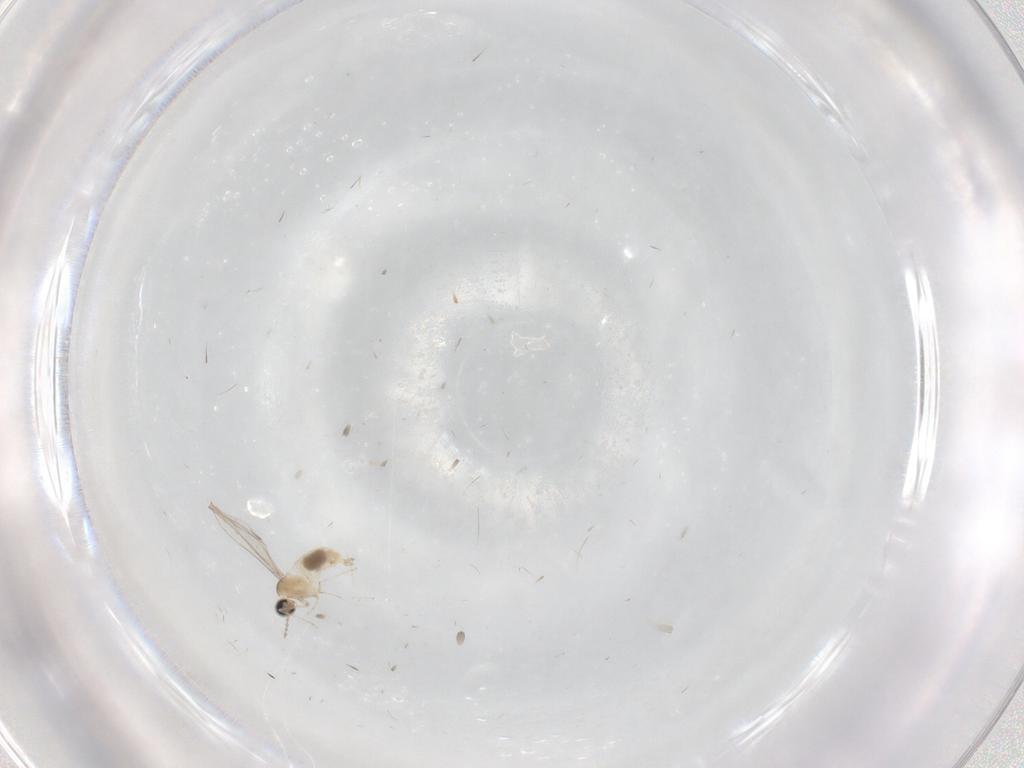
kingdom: Animalia
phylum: Arthropoda
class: Insecta
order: Diptera
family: Cecidomyiidae
